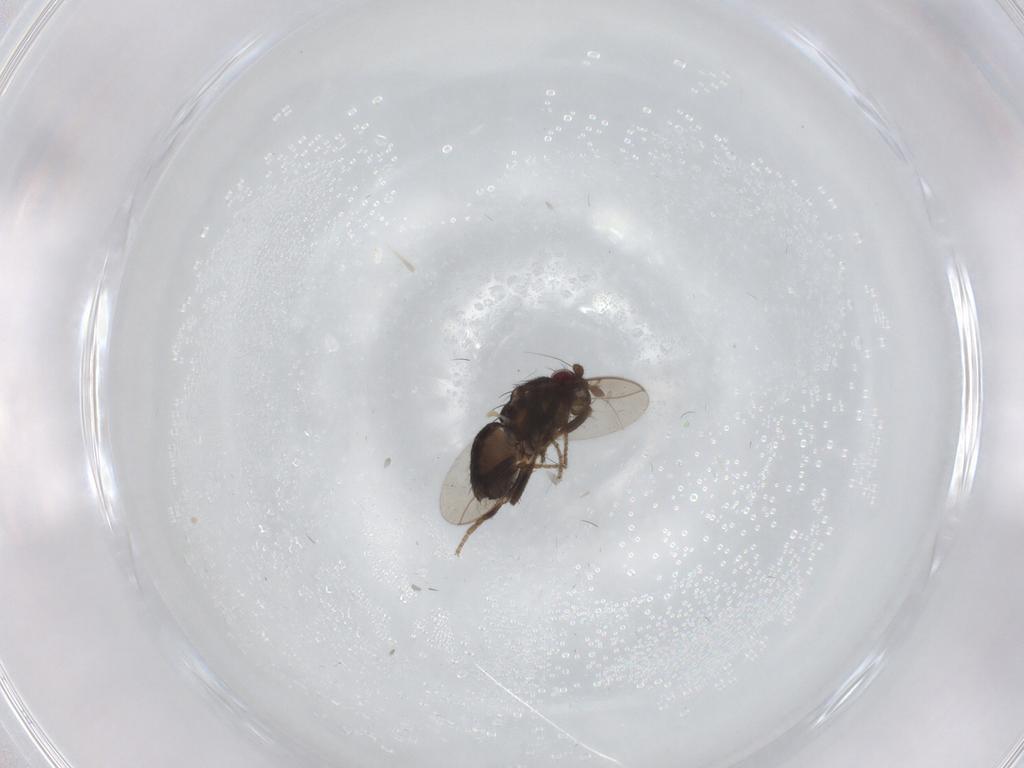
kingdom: Animalia
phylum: Arthropoda
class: Insecta
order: Diptera
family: Sphaeroceridae
